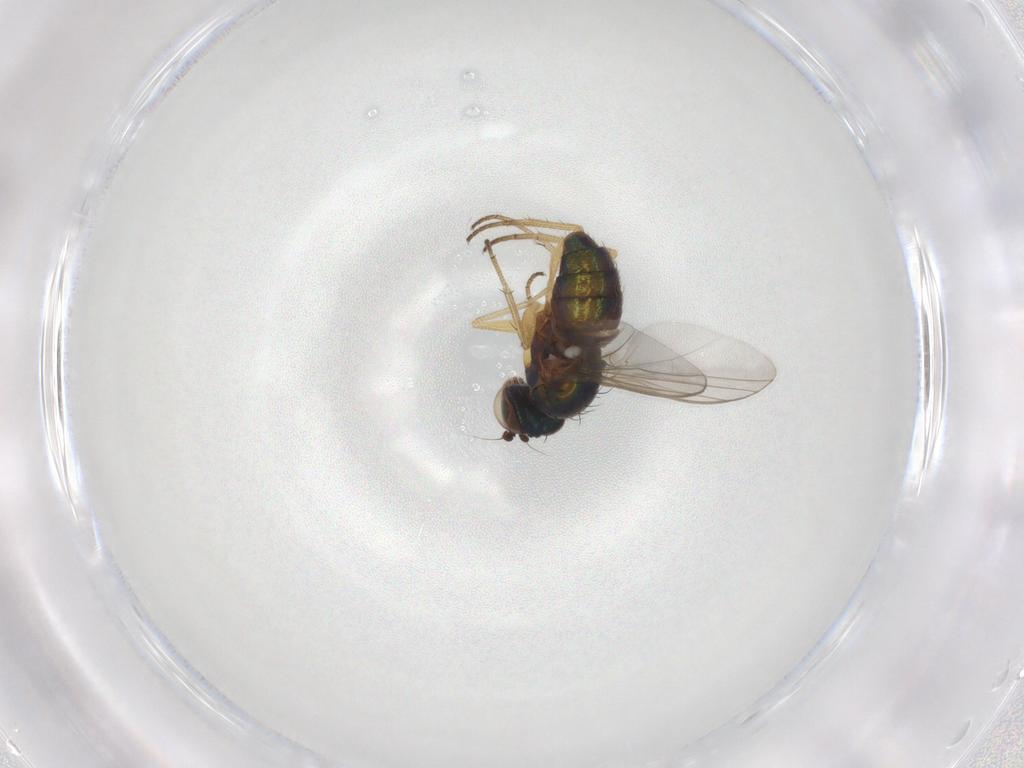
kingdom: Animalia
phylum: Arthropoda
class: Insecta
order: Diptera
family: Dolichopodidae
